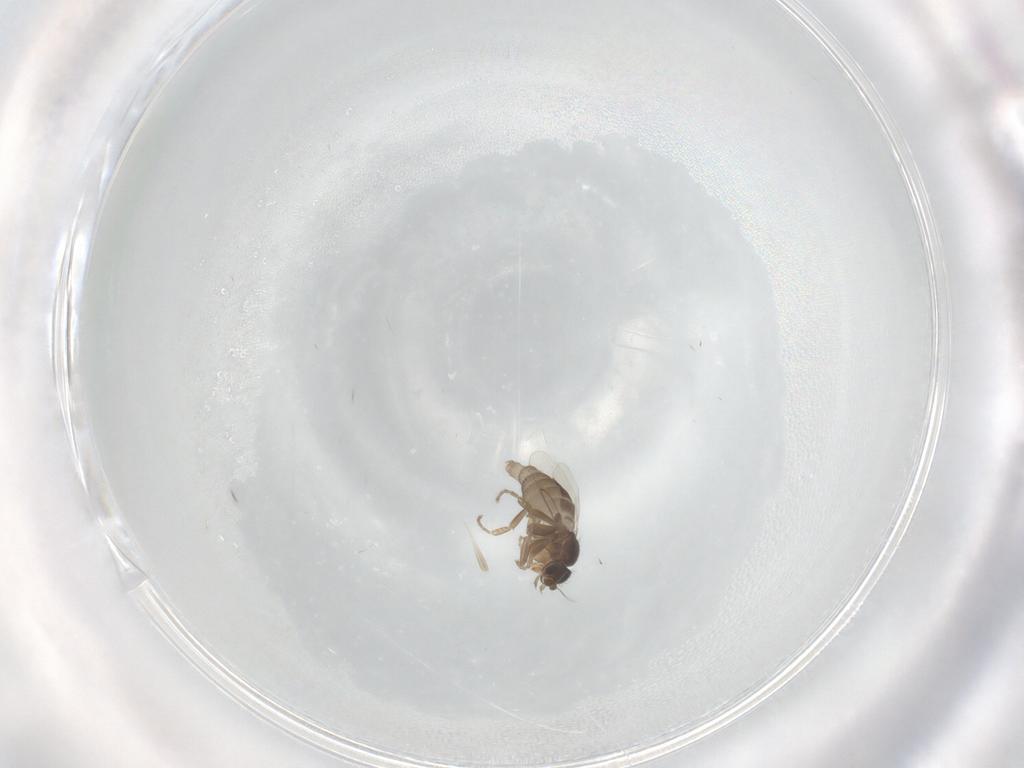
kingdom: Animalia
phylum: Arthropoda
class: Insecta
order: Diptera
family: Phoridae
